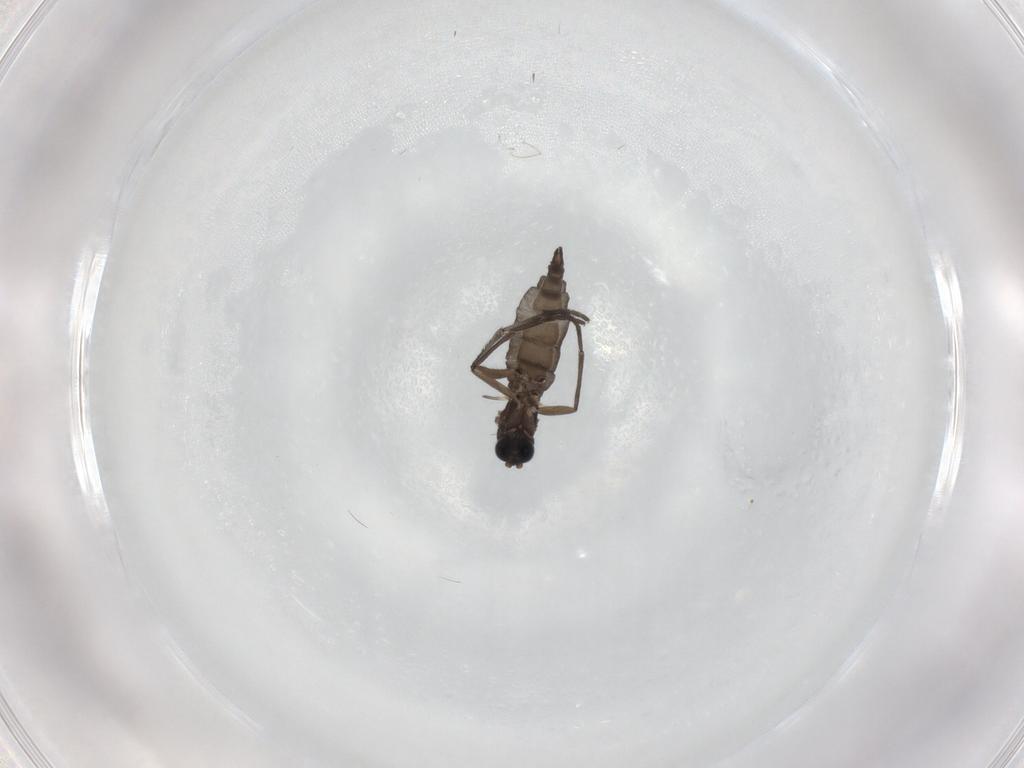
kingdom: Animalia
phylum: Arthropoda
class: Insecta
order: Diptera
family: Sciaridae
